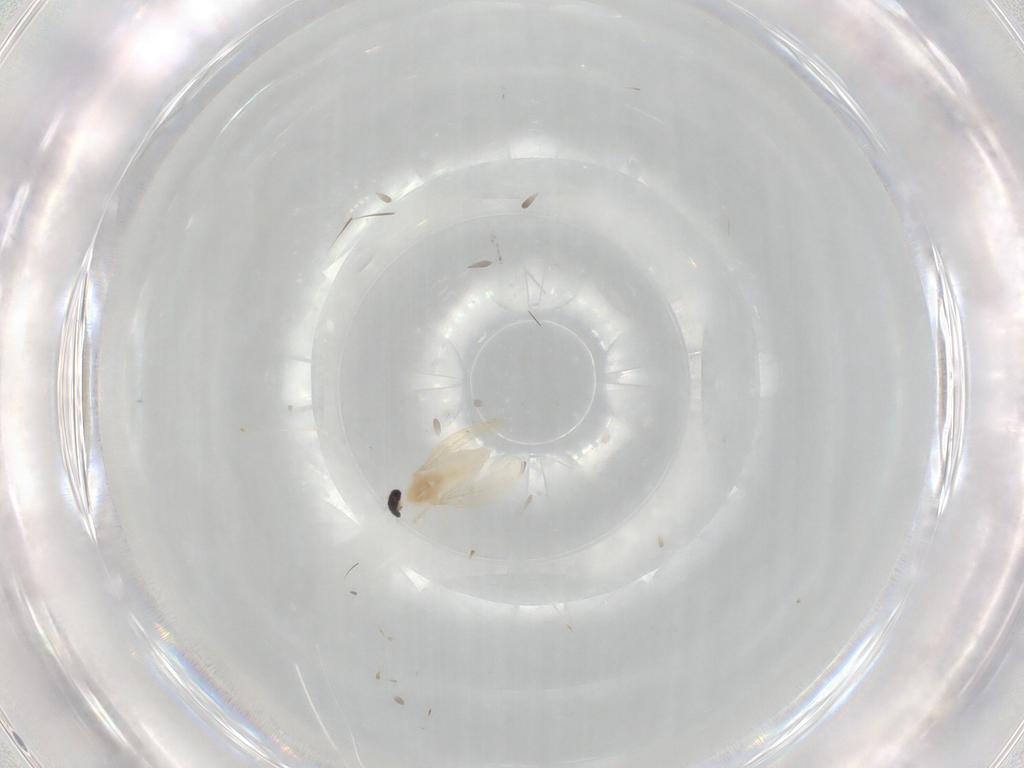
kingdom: Animalia
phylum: Arthropoda
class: Insecta
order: Diptera
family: Cecidomyiidae
